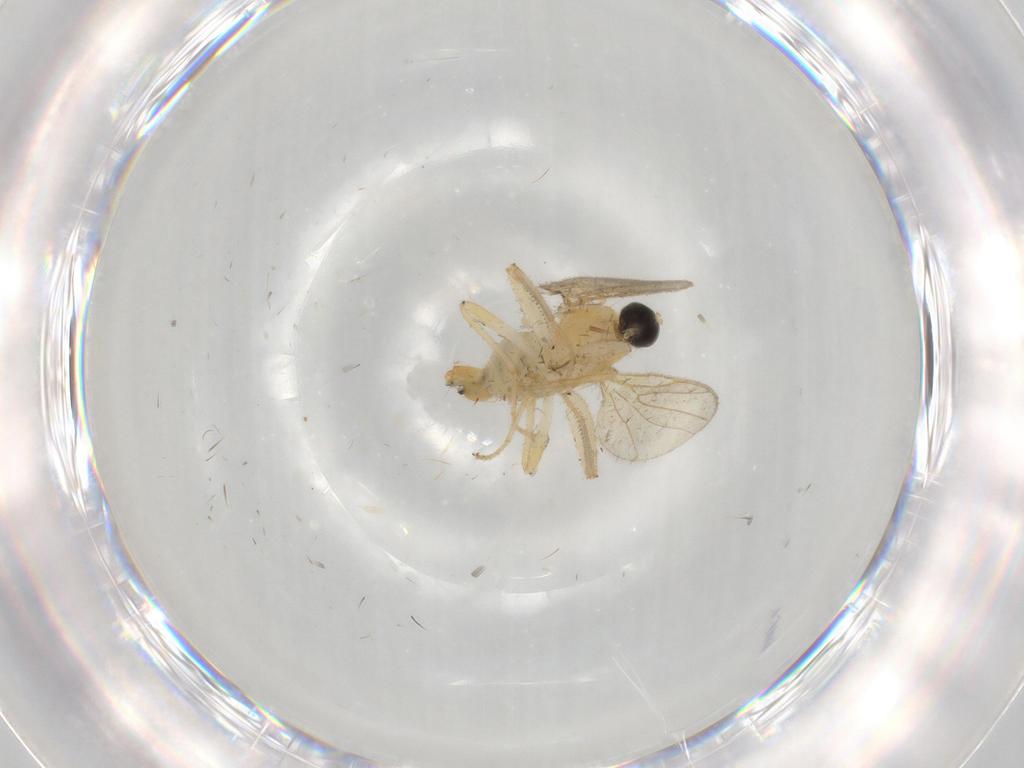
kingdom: Animalia
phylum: Arthropoda
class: Insecta
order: Diptera
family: Hybotidae
